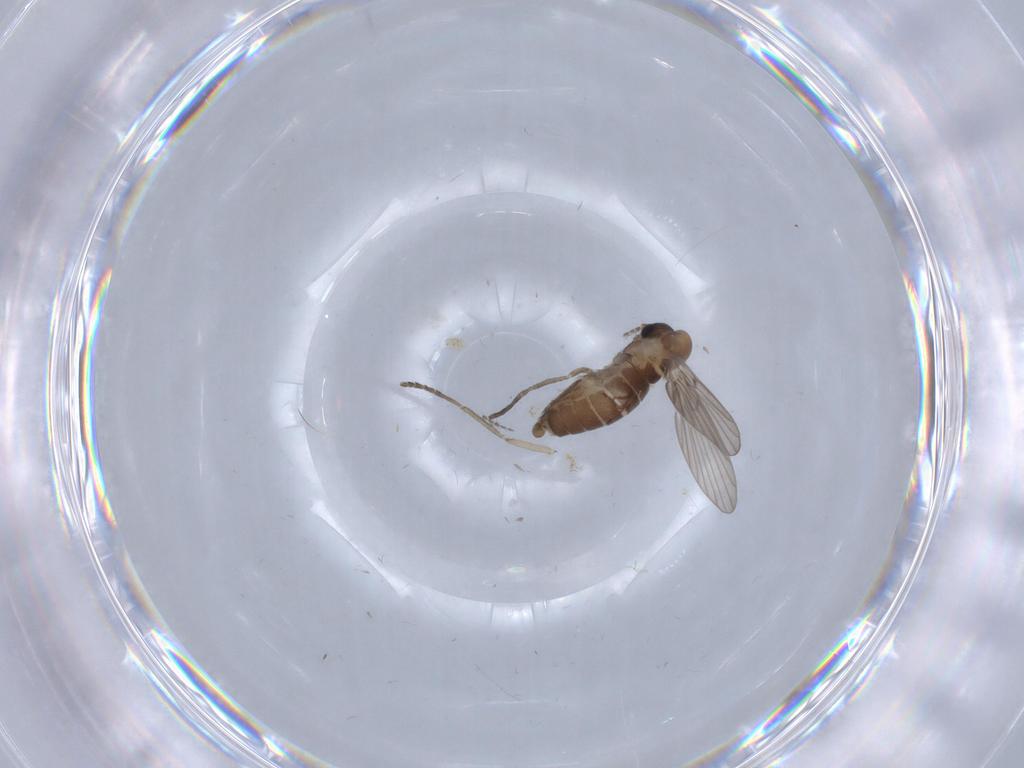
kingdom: Animalia
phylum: Arthropoda
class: Insecta
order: Diptera
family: Psychodidae
